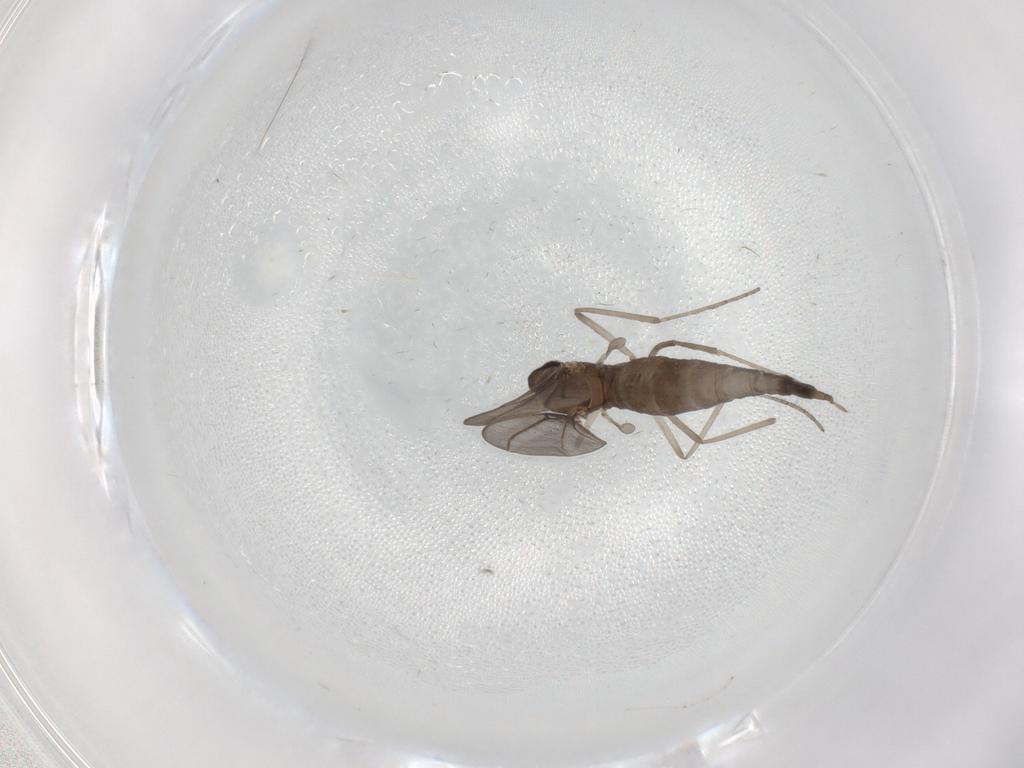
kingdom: Animalia
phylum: Arthropoda
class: Insecta
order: Diptera
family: Cecidomyiidae
